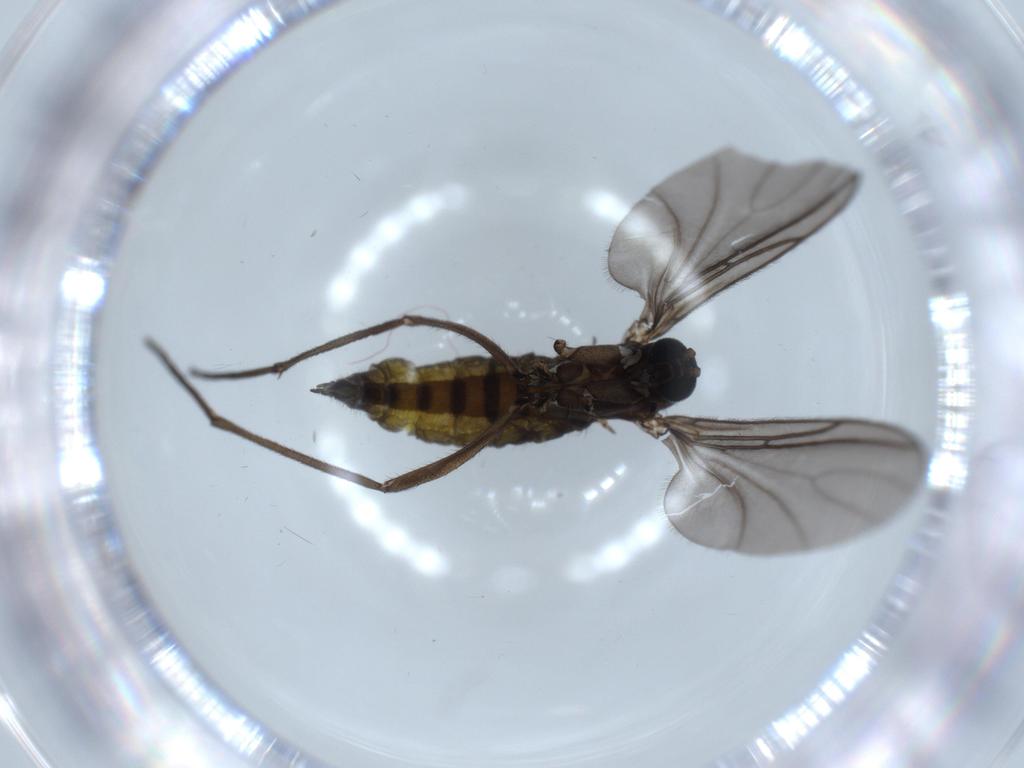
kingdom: Animalia
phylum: Arthropoda
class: Insecta
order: Diptera
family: Sciaridae
